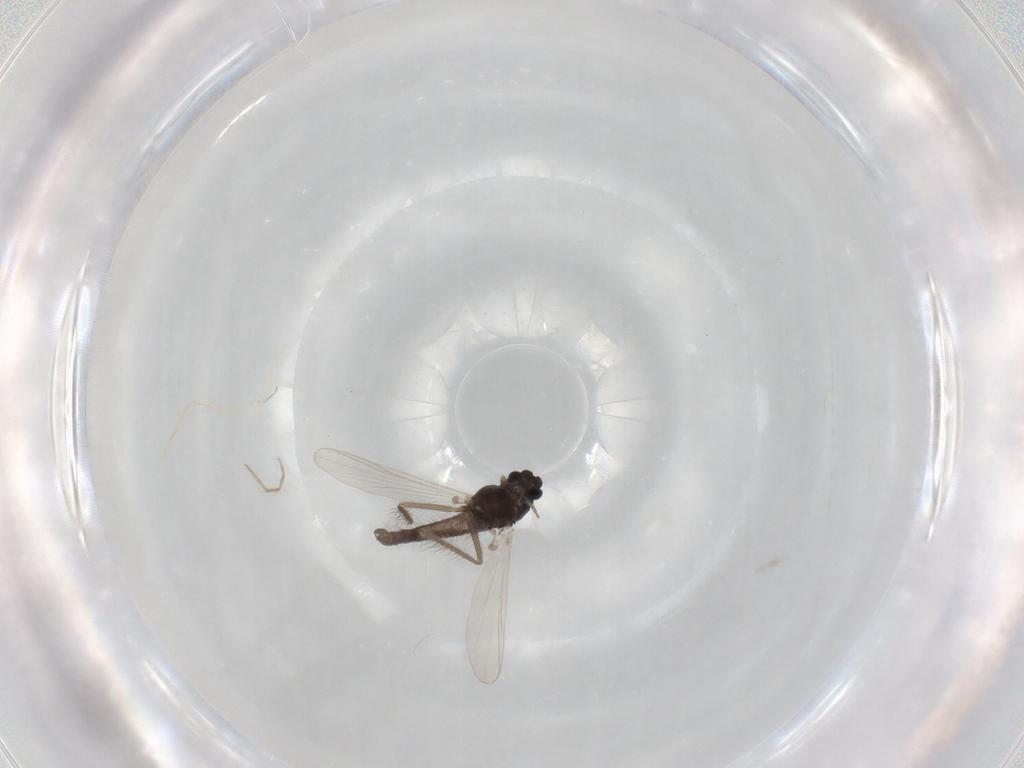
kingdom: Animalia
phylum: Arthropoda
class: Insecta
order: Diptera
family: Chironomidae
